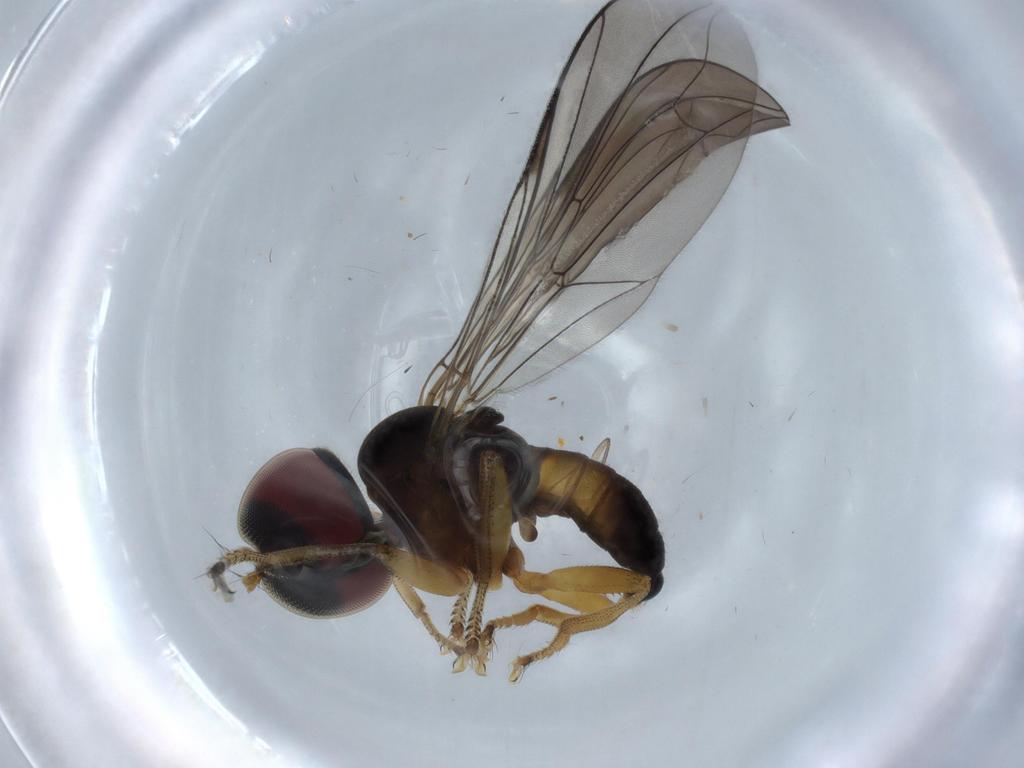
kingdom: Animalia
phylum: Arthropoda
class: Insecta
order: Diptera
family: Pipunculidae
